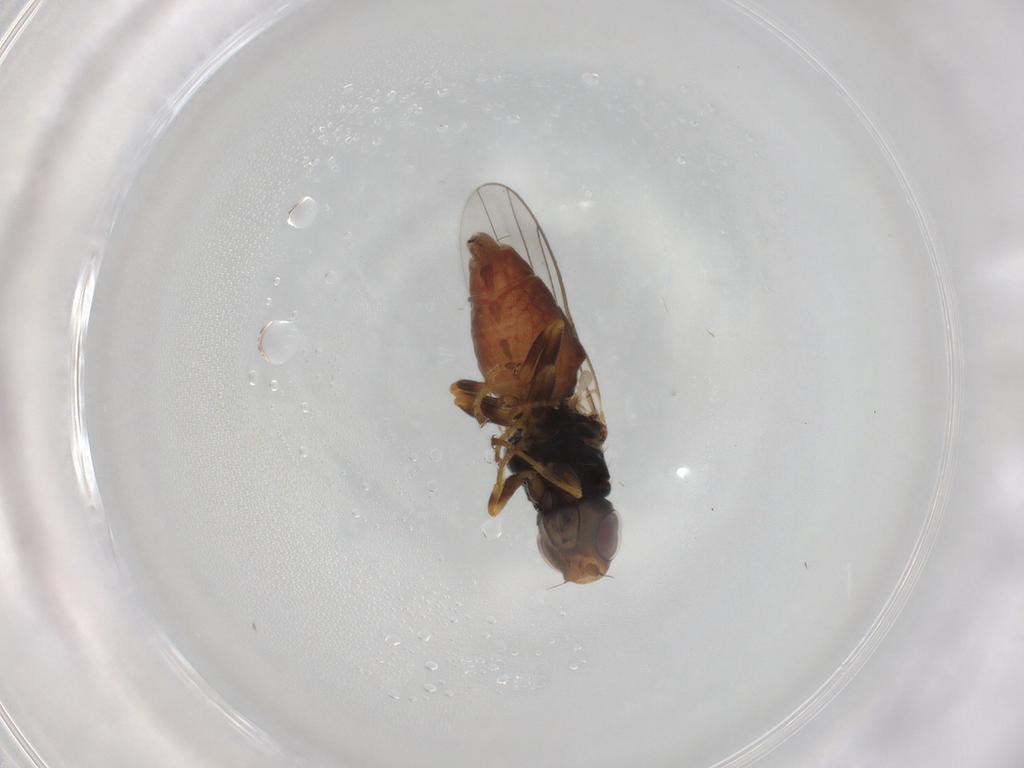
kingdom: Animalia
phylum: Arthropoda
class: Insecta
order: Diptera
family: Chloropidae
